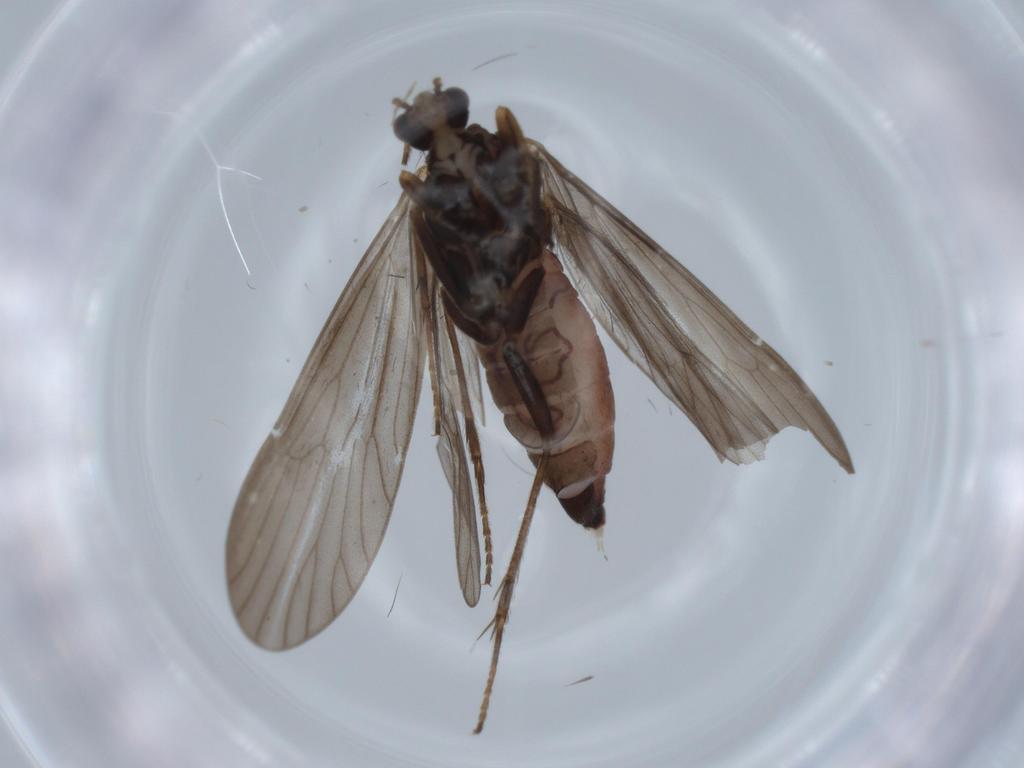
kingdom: Animalia
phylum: Arthropoda
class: Insecta
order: Trichoptera
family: Glossosomatidae
